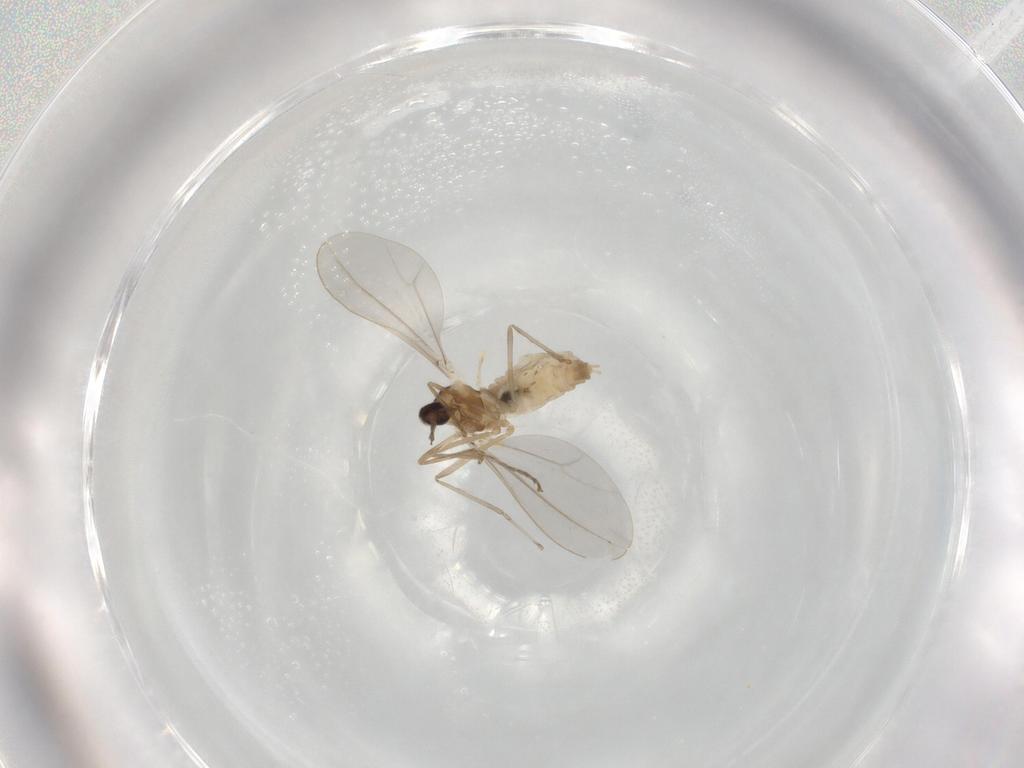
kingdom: Animalia
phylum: Arthropoda
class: Insecta
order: Diptera
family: Cecidomyiidae
